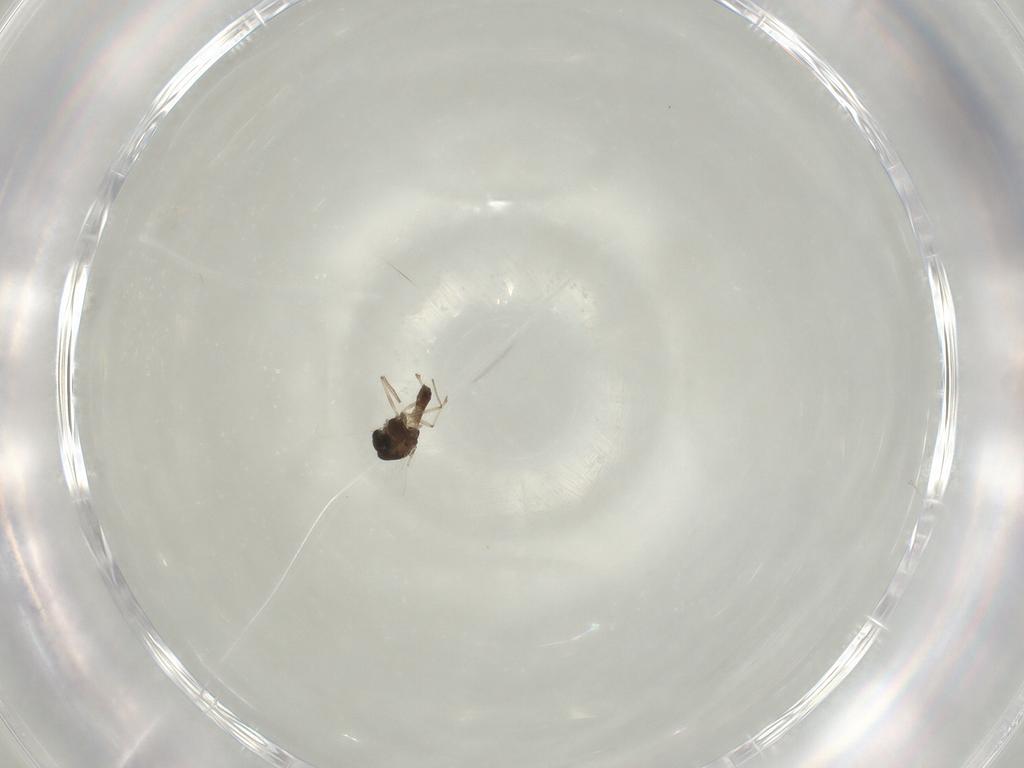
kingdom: Animalia
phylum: Arthropoda
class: Insecta
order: Diptera
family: Chironomidae
